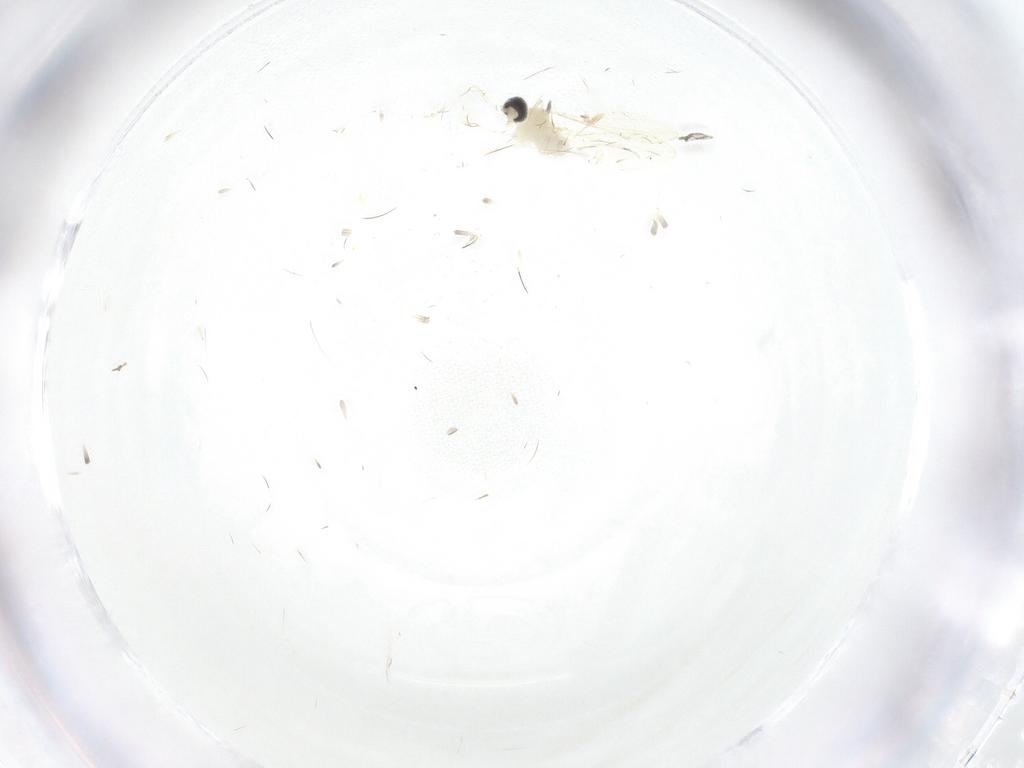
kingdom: Animalia
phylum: Arthropoda
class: Insecta
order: Diptera
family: Cecidomyiidae
